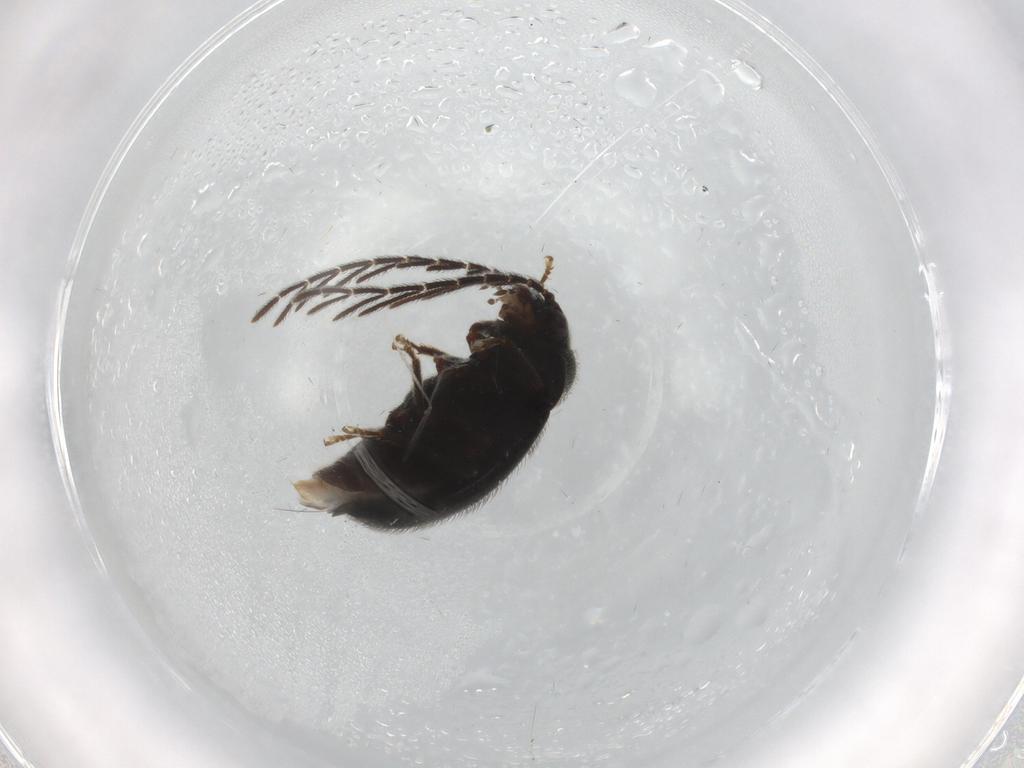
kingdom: Animalia
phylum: Arthropoda
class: Insecta
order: Coleoptera
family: Ptilodactylidae
